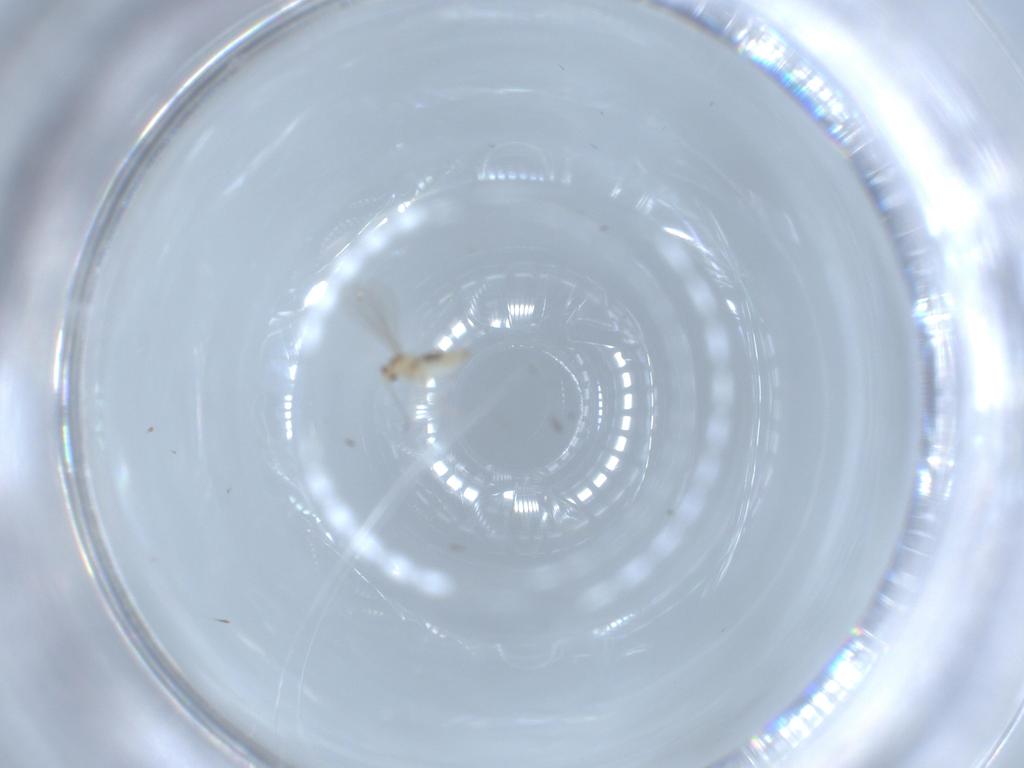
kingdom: Animalia
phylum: Arthropoda
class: Insecta
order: Diptera
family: Cecidomyiidae
